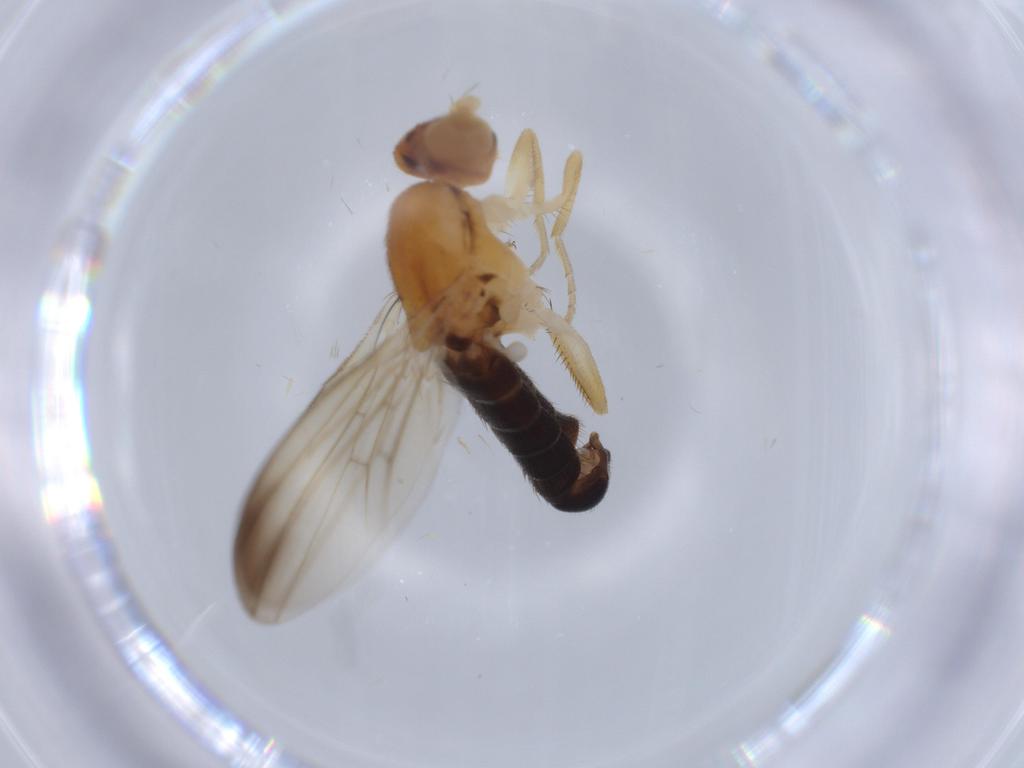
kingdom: Animalia
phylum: Arthropoda
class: Insecta
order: Diptera
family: Clusiidae
